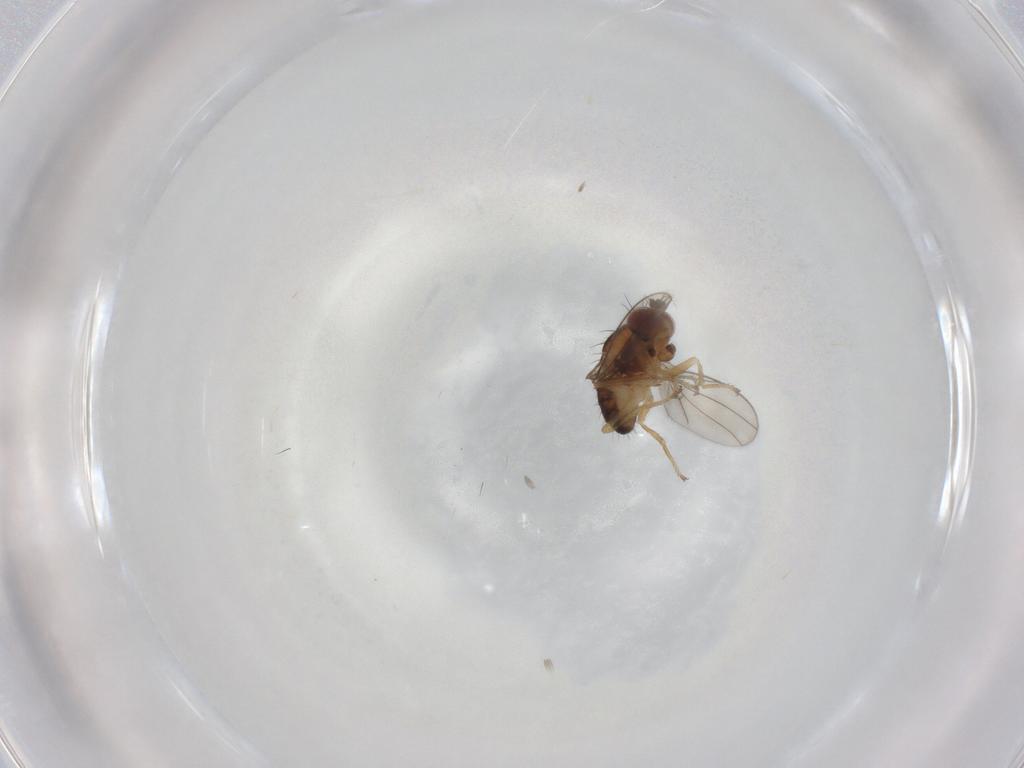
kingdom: Animalia
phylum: Arthropoda
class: Insecta
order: Diptera
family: Ephydridae
